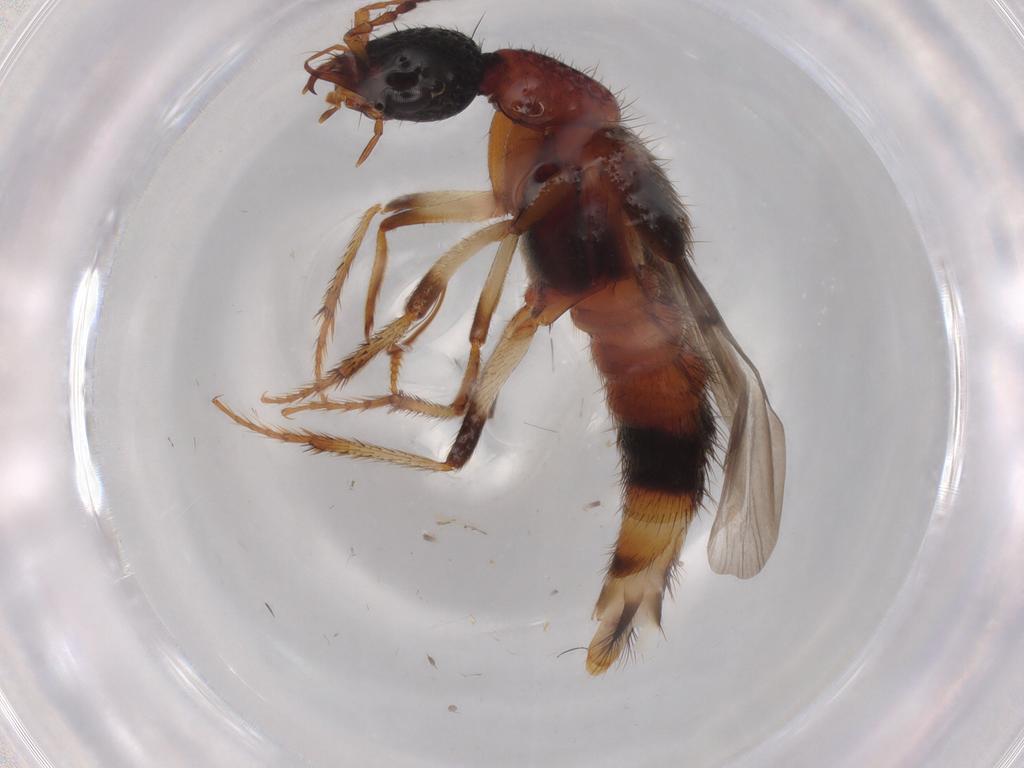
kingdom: Animalia
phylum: Arthropoda
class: Insecta
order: Coleoptera
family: Staphylinidae
